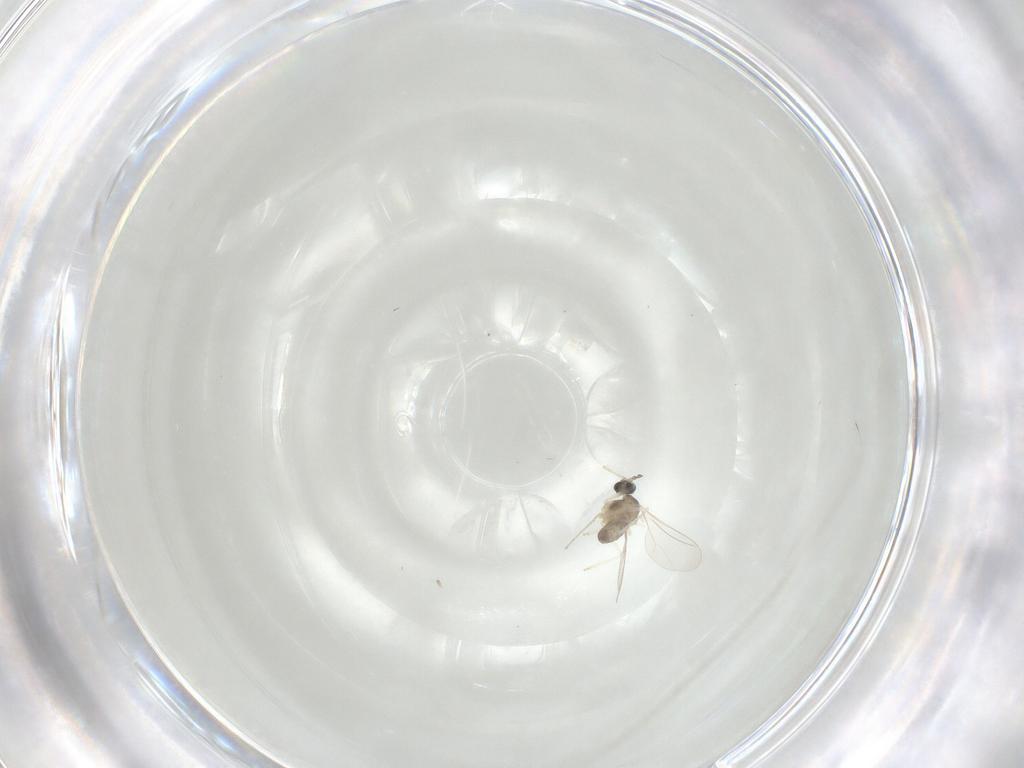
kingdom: Animalia
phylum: Arthropoda
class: Insecta
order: Diptera
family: Cecidomyiidae
